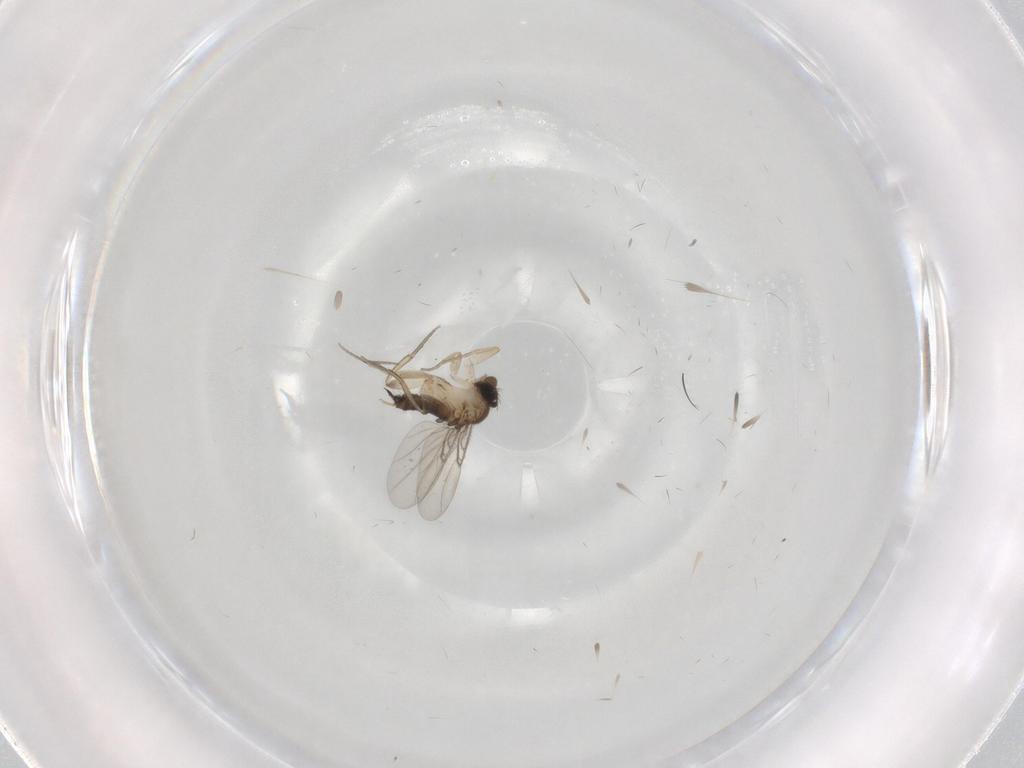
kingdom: Animalia
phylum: Arthropoda
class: Insecta
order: Diptera
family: Phoridae
